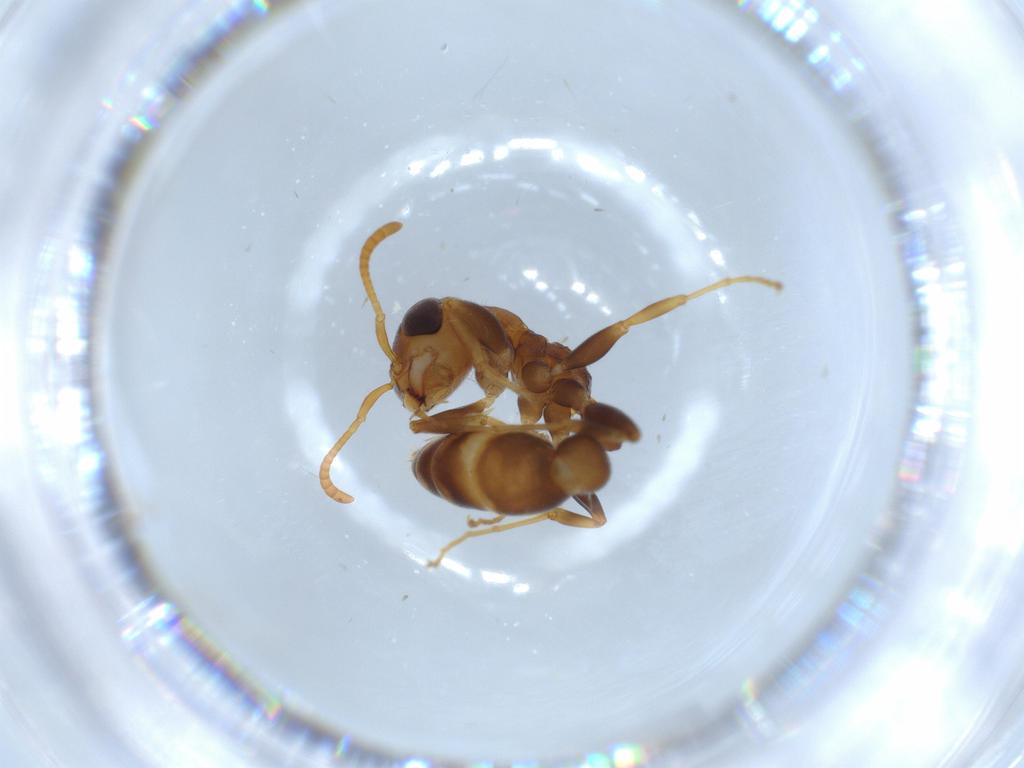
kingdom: Animalia
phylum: Arthropoda
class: Insecta
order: Hymenoptera
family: Formicidae
